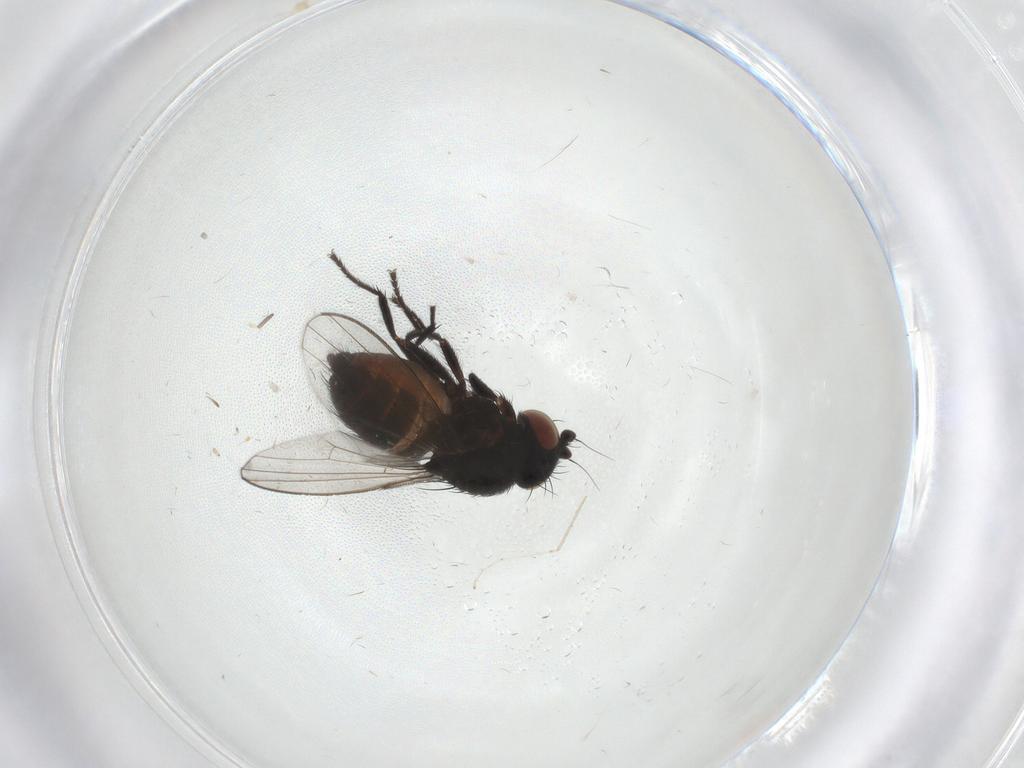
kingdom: Animalia
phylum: Arthropoda
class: Insecta
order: Diptera
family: Milichiidae
